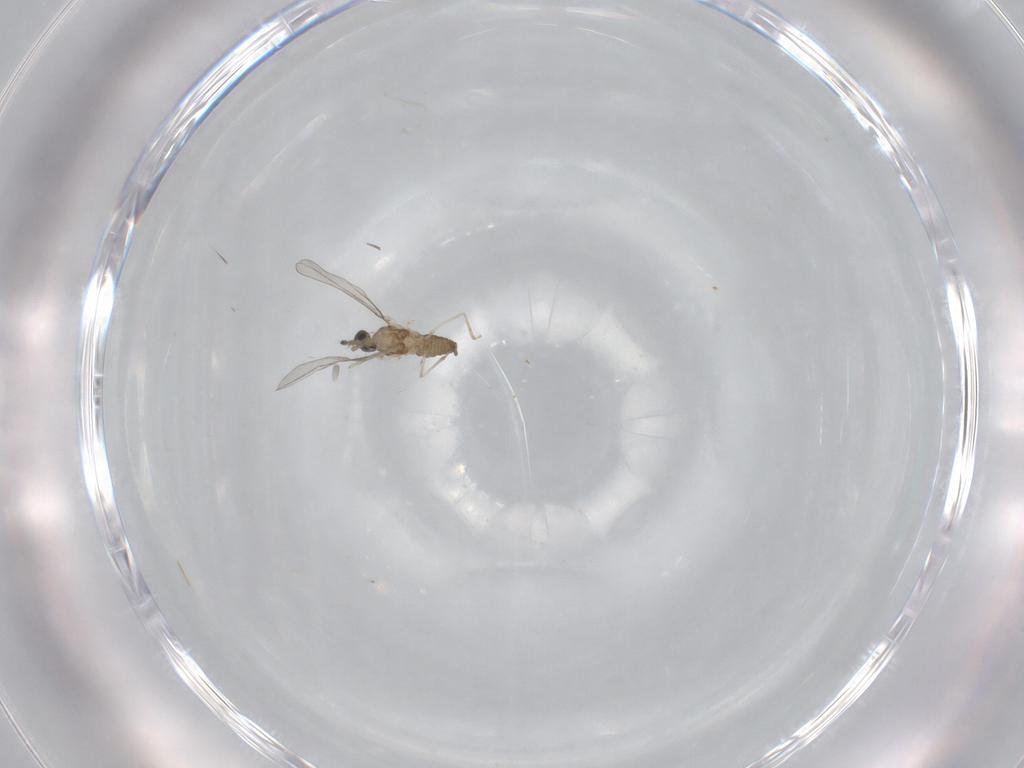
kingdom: Animalia
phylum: Arthropoda
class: Insecta
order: Diptera
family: Cecidomyiidae
